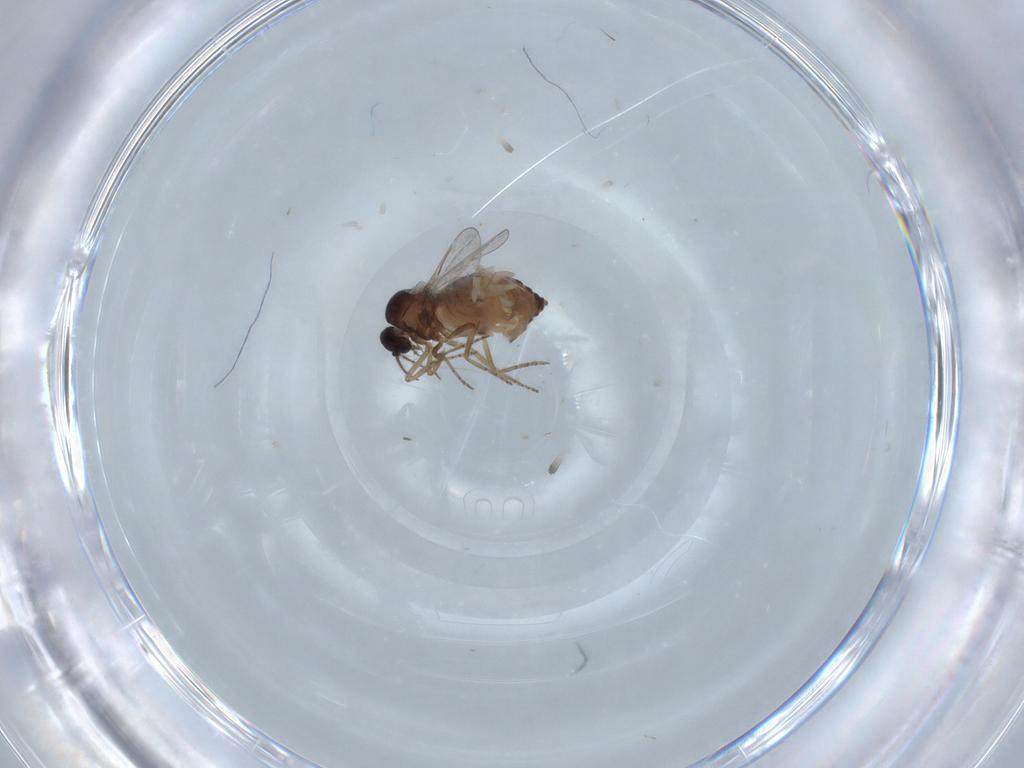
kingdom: Animalia
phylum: Arthropoda
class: Insecta
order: Diptera
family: Ceratopogonidae
